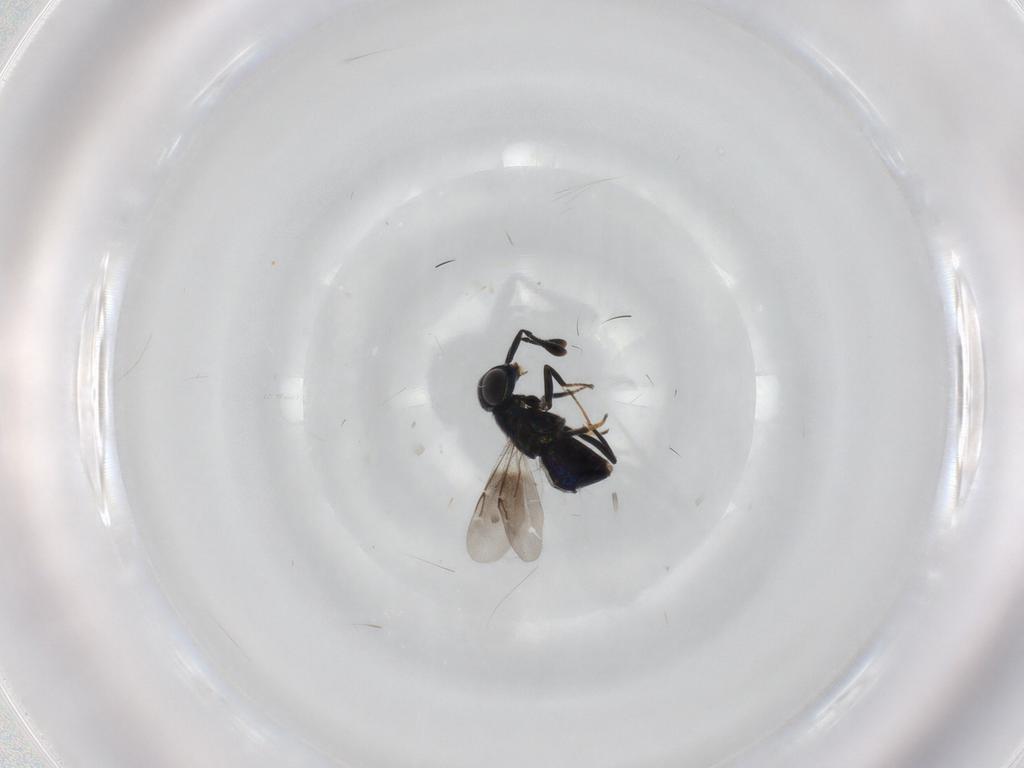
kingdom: Animalia
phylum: Arthropoda
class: Insecta
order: Hymenoptera
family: Encyrtidae
